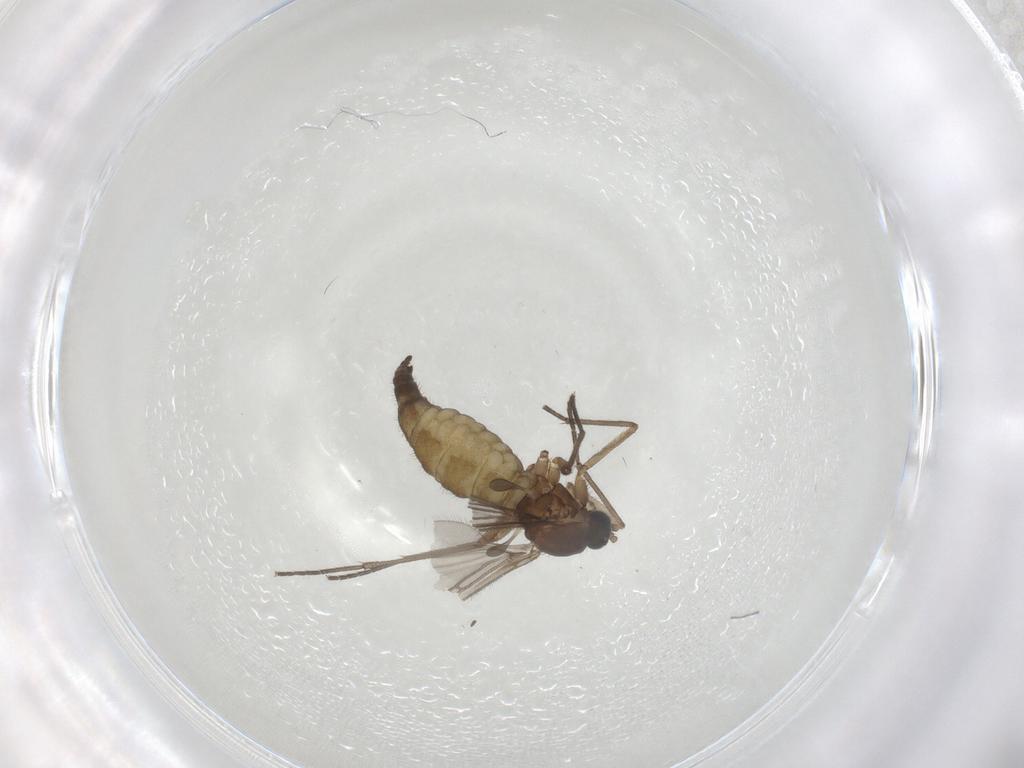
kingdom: Animalia
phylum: Arthropoda
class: Insecta
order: Diptera
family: Sciaridae
